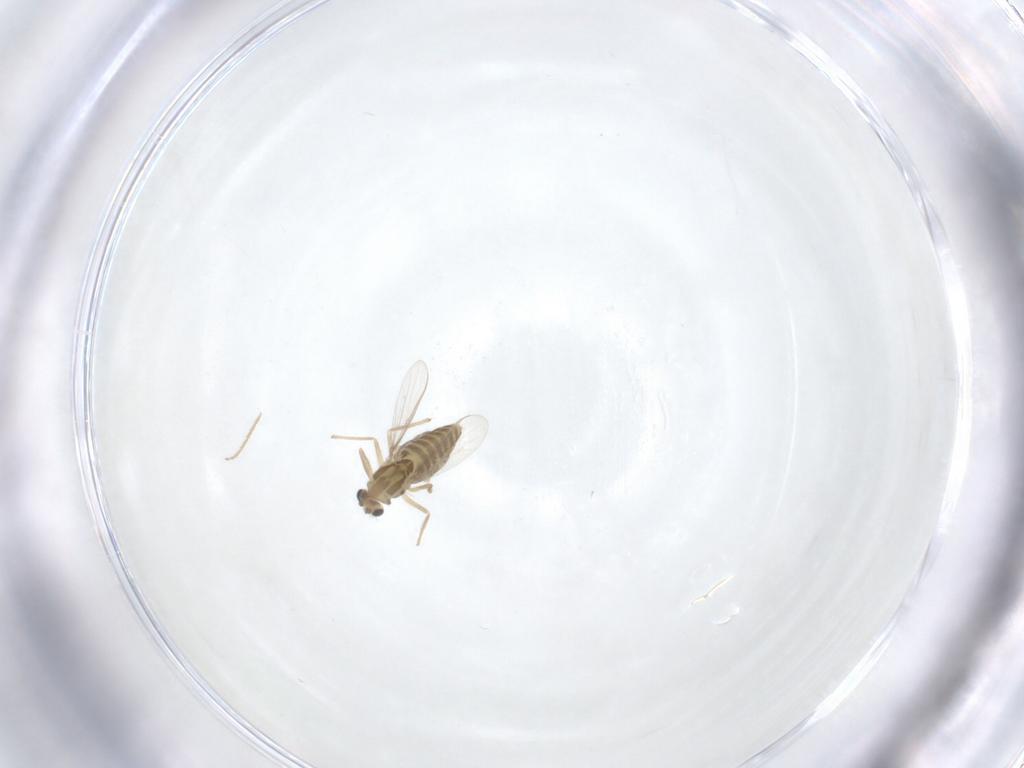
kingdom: Animalia
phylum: Arthropoda
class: Insecta
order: Diptera
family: Chironomidae
